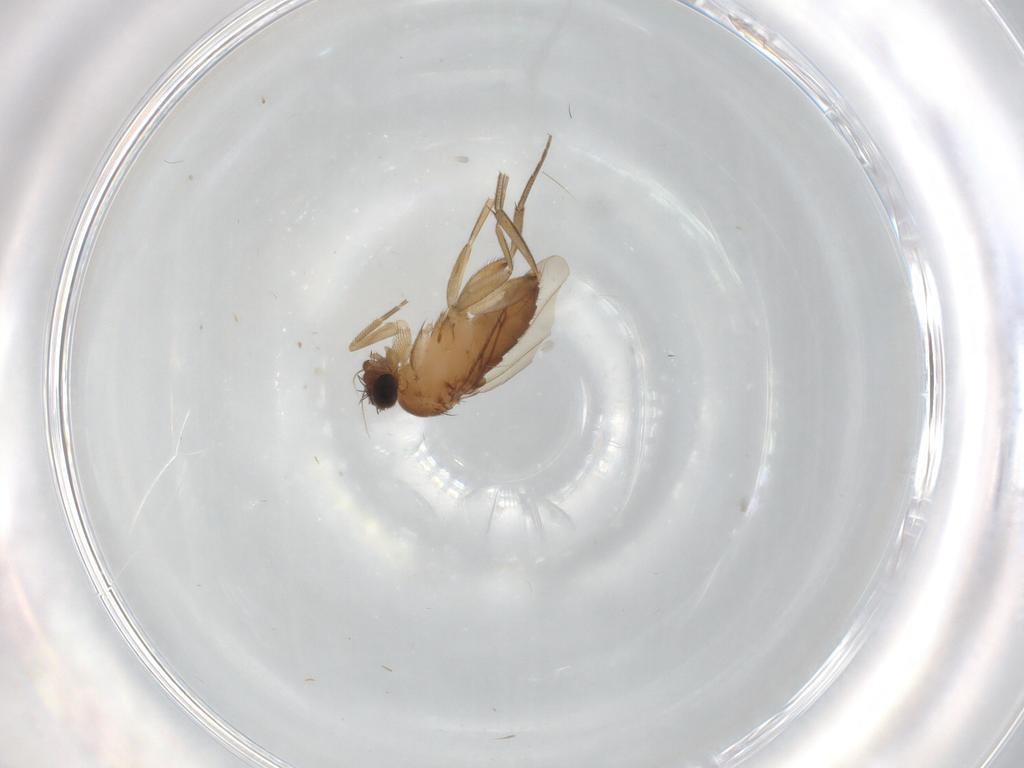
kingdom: Animalia
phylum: Arthropoda
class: Insecta
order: Diptera
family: Phoridae
